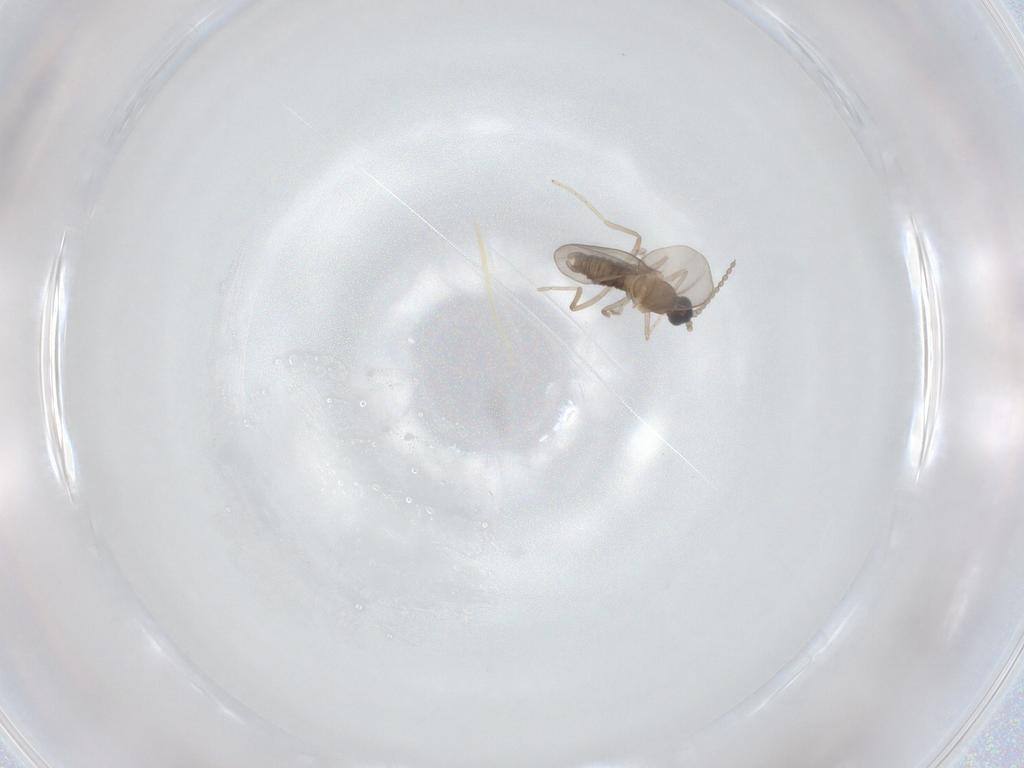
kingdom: Animalia
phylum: Arthropoda
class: Insecta
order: Diptera
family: Cecidomyiidae
